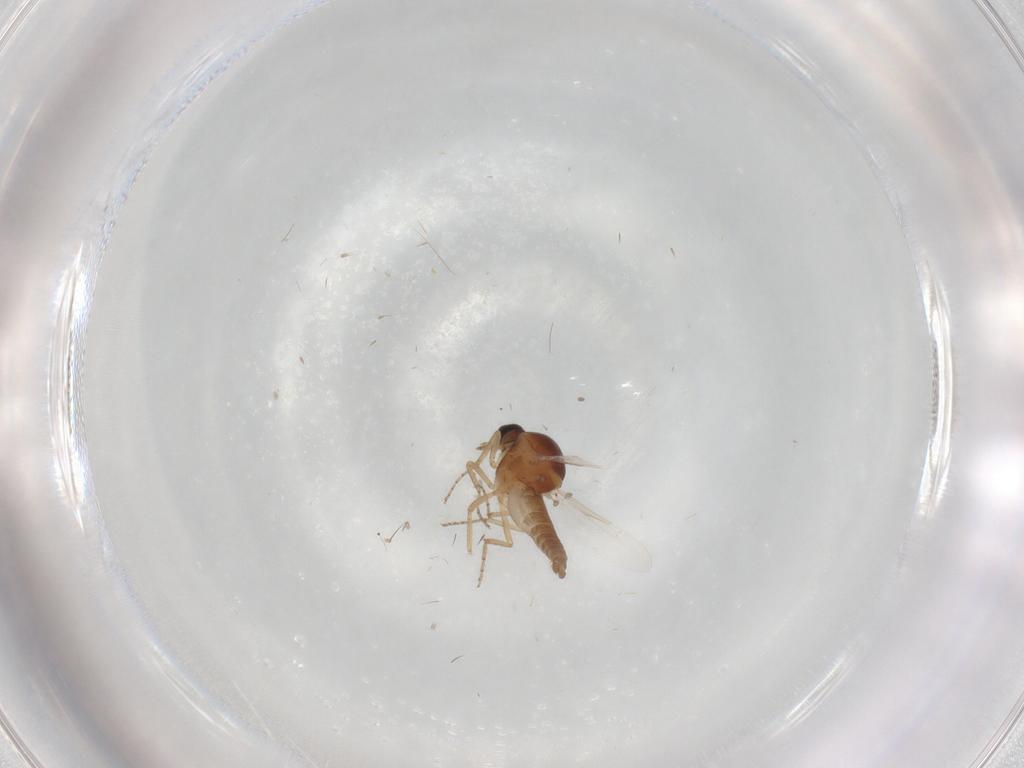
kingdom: Animalia
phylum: Arthropoda
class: Insecta
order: Diptera
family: Ceratopogonidae
